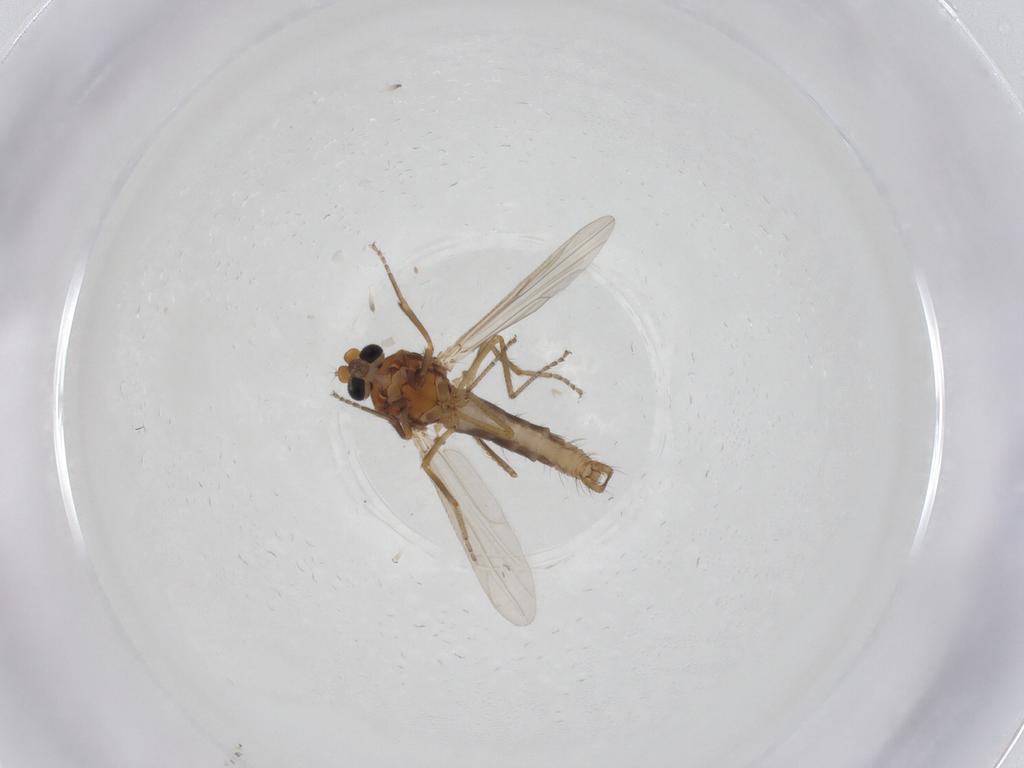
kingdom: Animalia
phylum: Arthropoda
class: Insecta
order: Diptera
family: Ceratopogonidae
